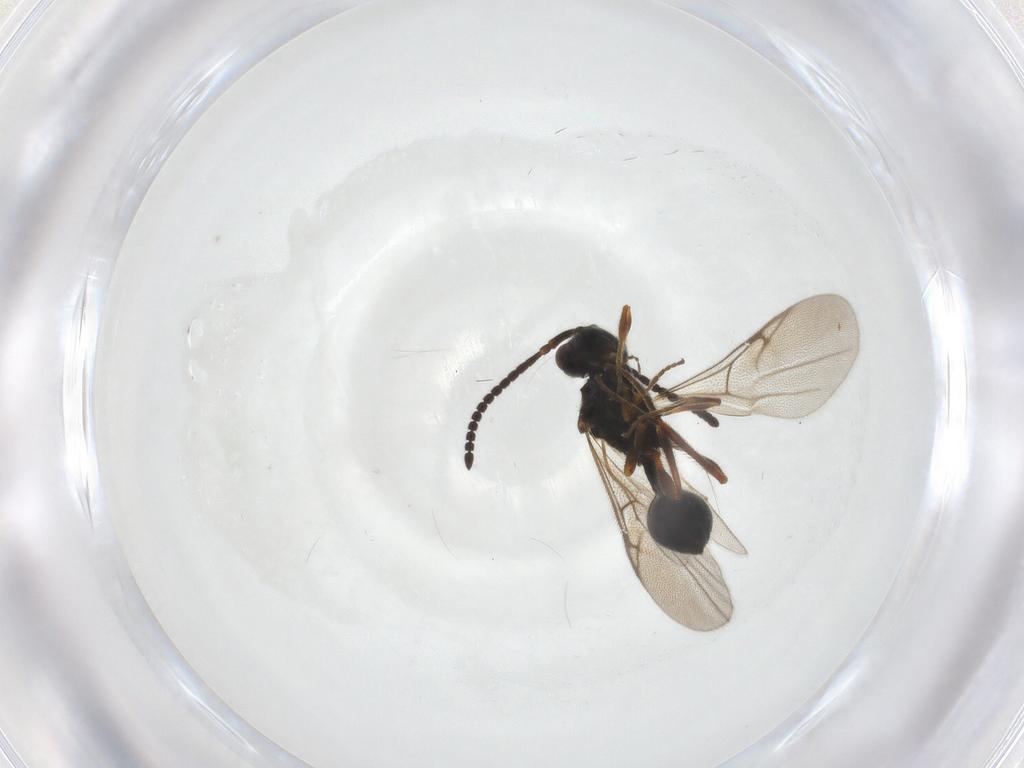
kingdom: Animalia
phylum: Arthropoda
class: Insecta
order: Hymenoptera
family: Diapriidae
